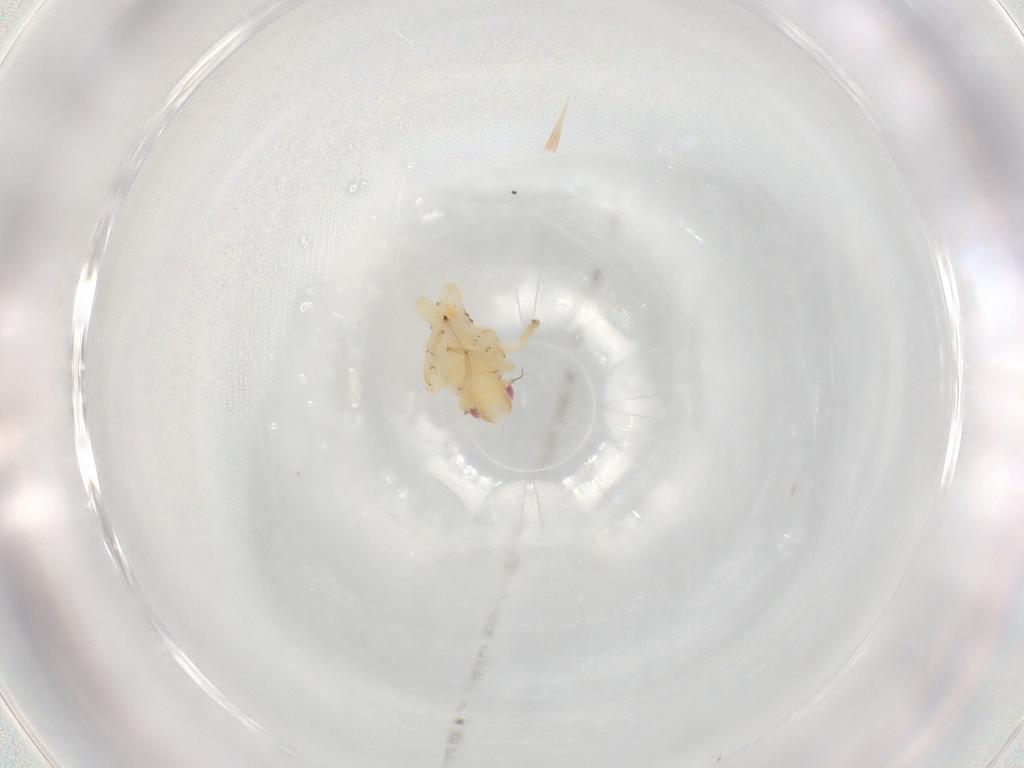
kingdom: Animalia
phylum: Arthropoda
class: Insecta
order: Hemiptera
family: Tropiduchidae
